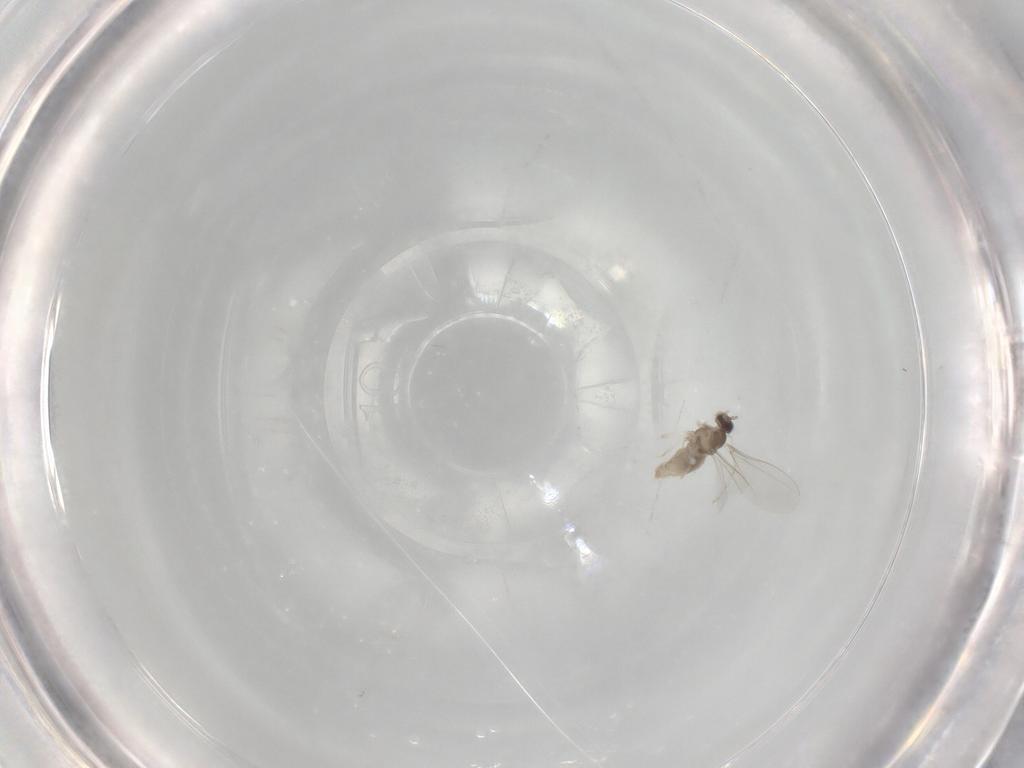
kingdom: Animalia
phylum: Arthropoda
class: Insecta
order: Diptera
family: Cecidomyiidae
